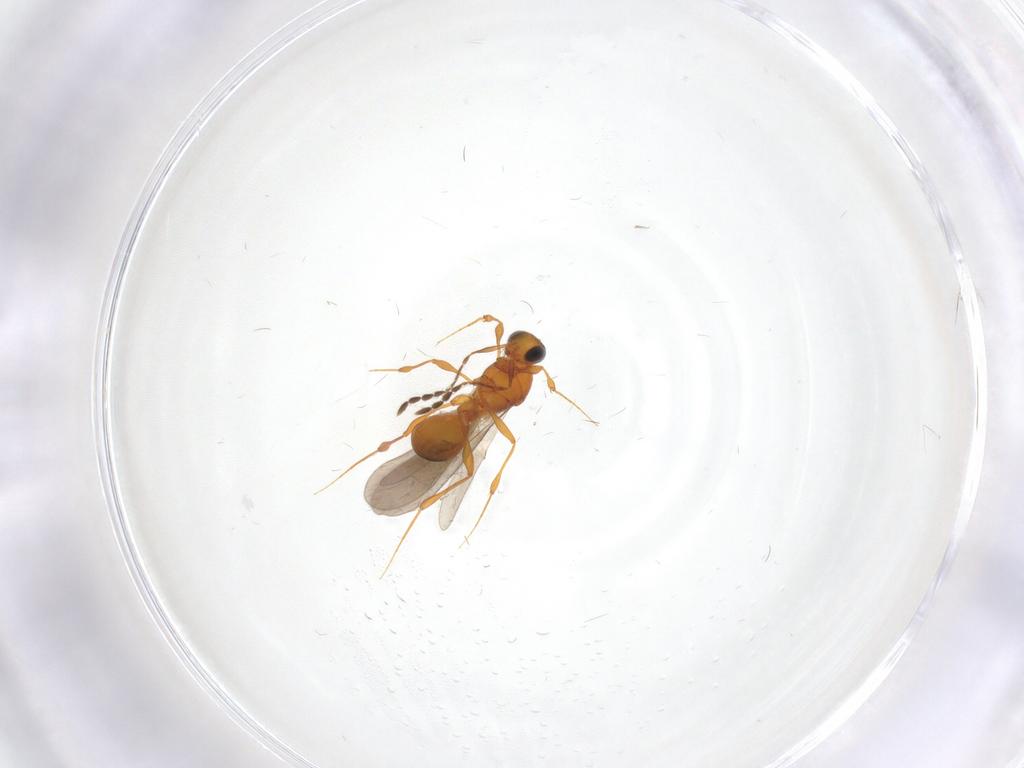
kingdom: Animalia
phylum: Arthropoda
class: Insecta
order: Hymenoptera
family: Platygastridae
